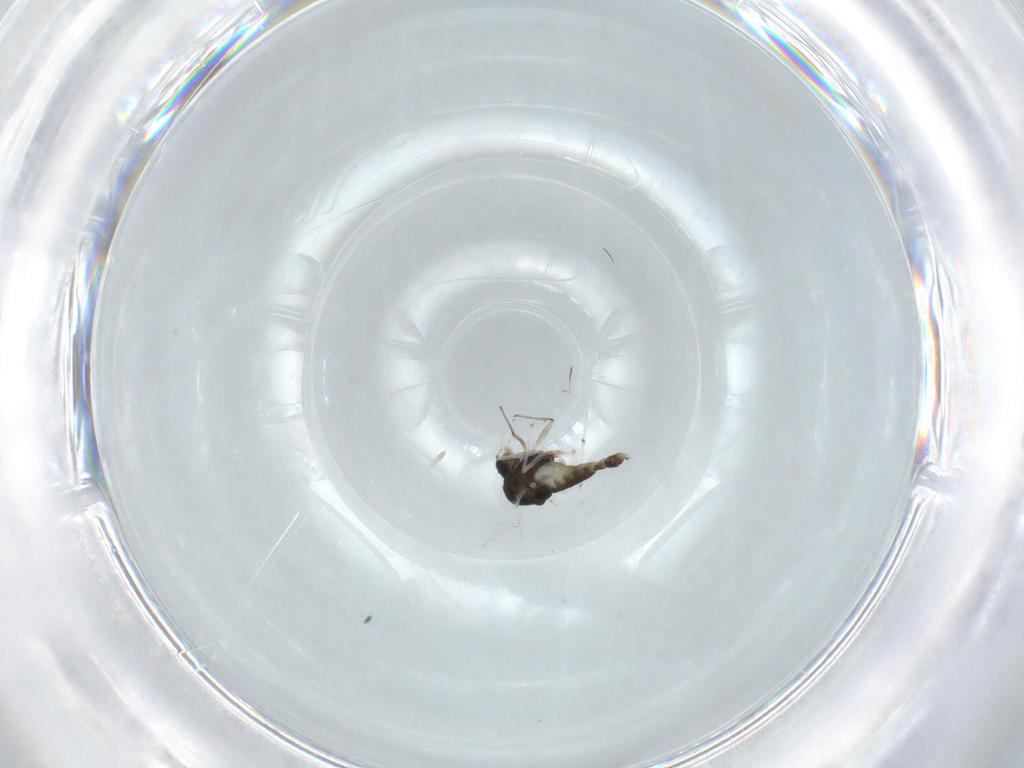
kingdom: Animalia
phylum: Arthropoda
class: Insecta
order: Diptera
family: Chironomidae
